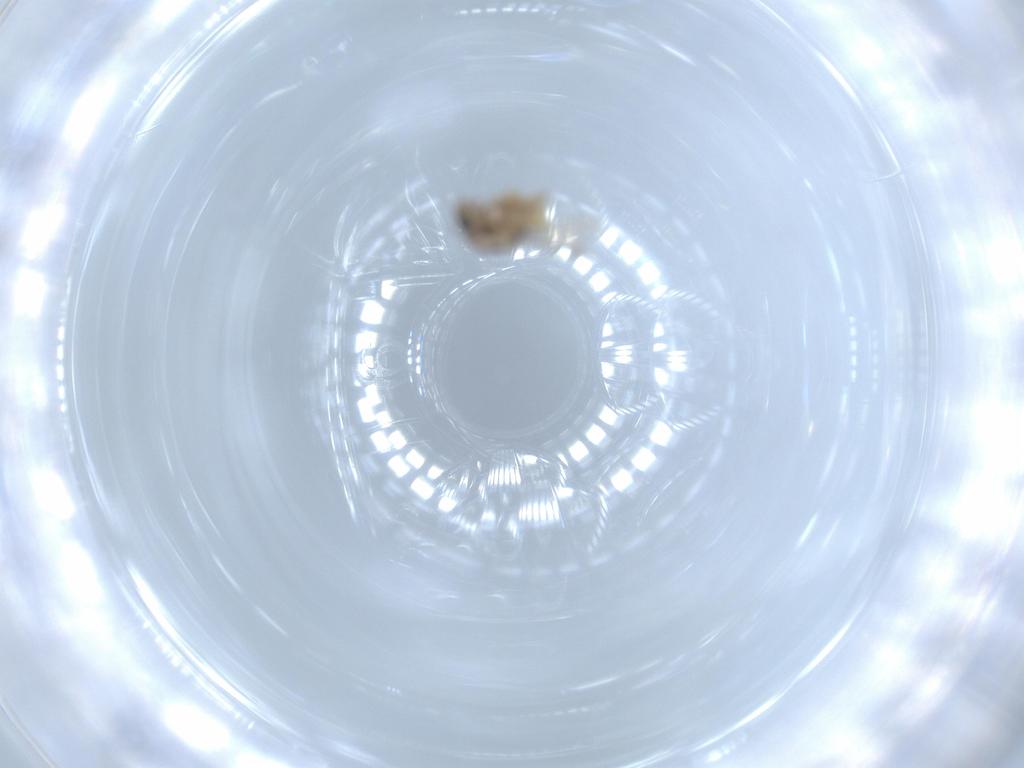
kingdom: Animalia
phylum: Arthropoda
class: Insecta
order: Diptera
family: Chironomidae
